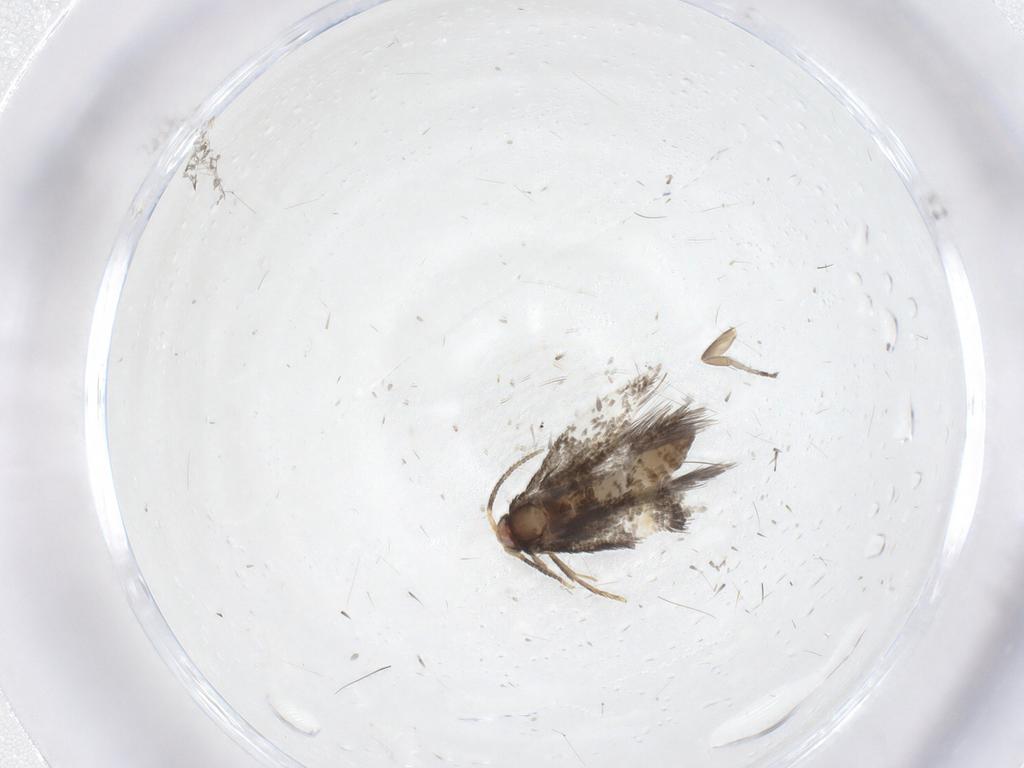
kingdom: Animalia
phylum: Arthropoda
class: Insecta
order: Lepidoptera
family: Nepticulidae
